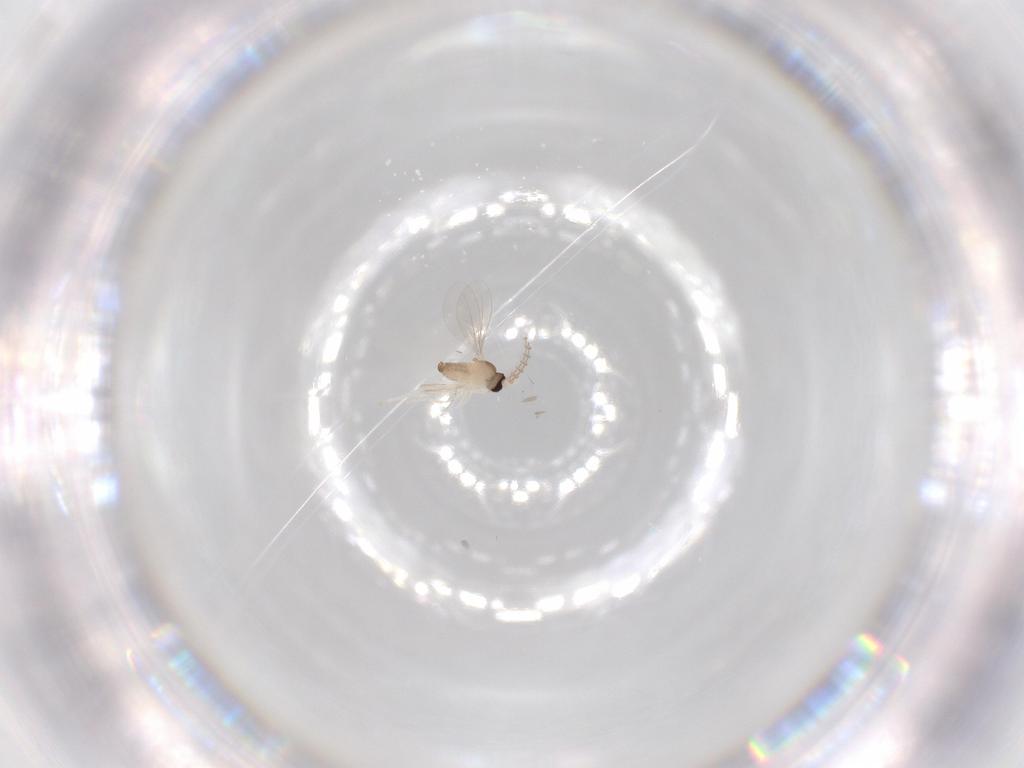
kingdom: Animalia
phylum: Arthropoda
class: Insecta
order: Diptera
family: Cecidomyiidae
